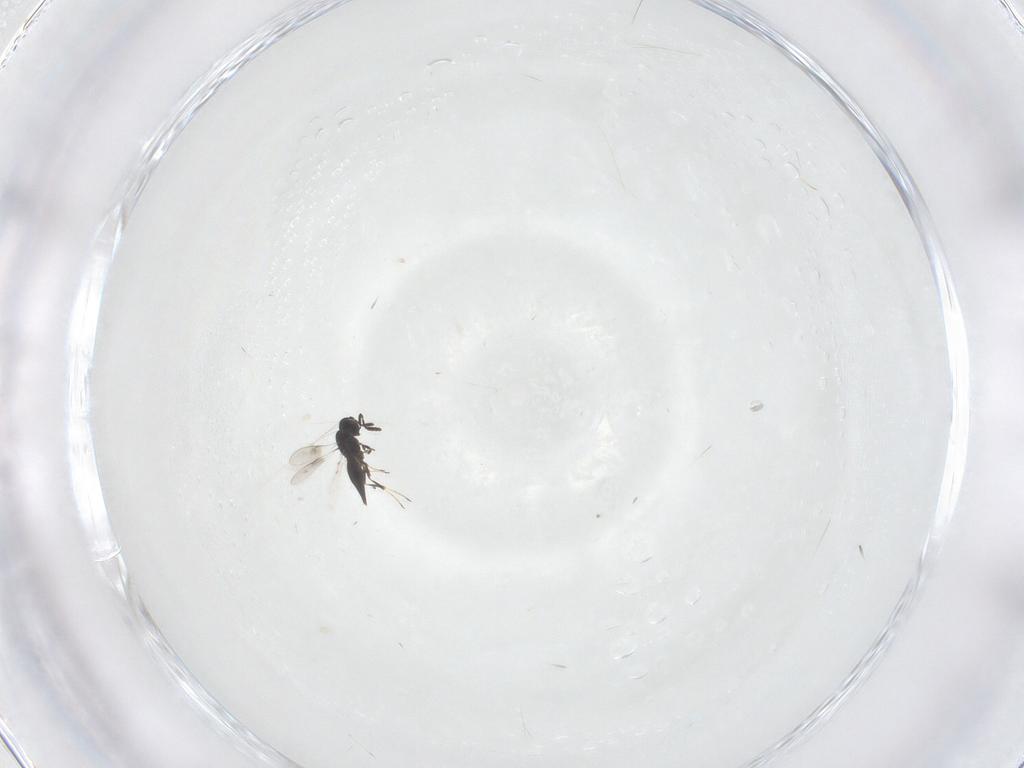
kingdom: Animalia
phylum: Arthropoda
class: Insecta
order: Hymenoptera
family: Scelionidae
